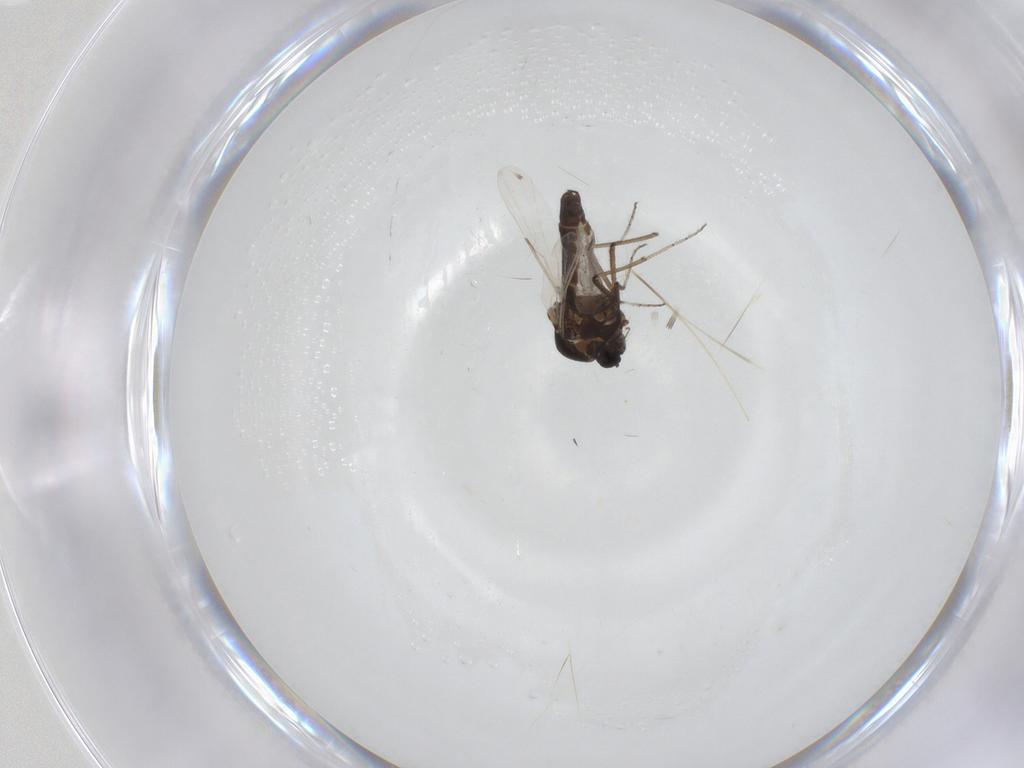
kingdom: Animalia
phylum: Arthropoda
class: Insecta
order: Diptera
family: Ceratopogonidae
